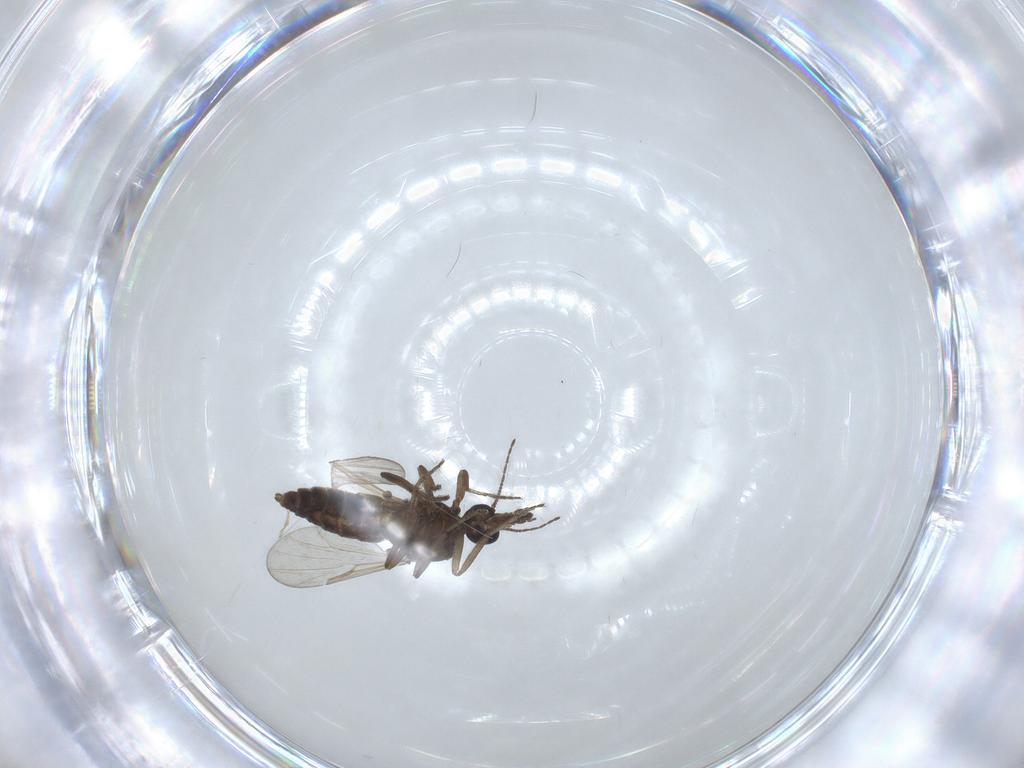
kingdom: Animalia
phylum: Arthropoda
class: Insecta
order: Diptera
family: Limoniidae
